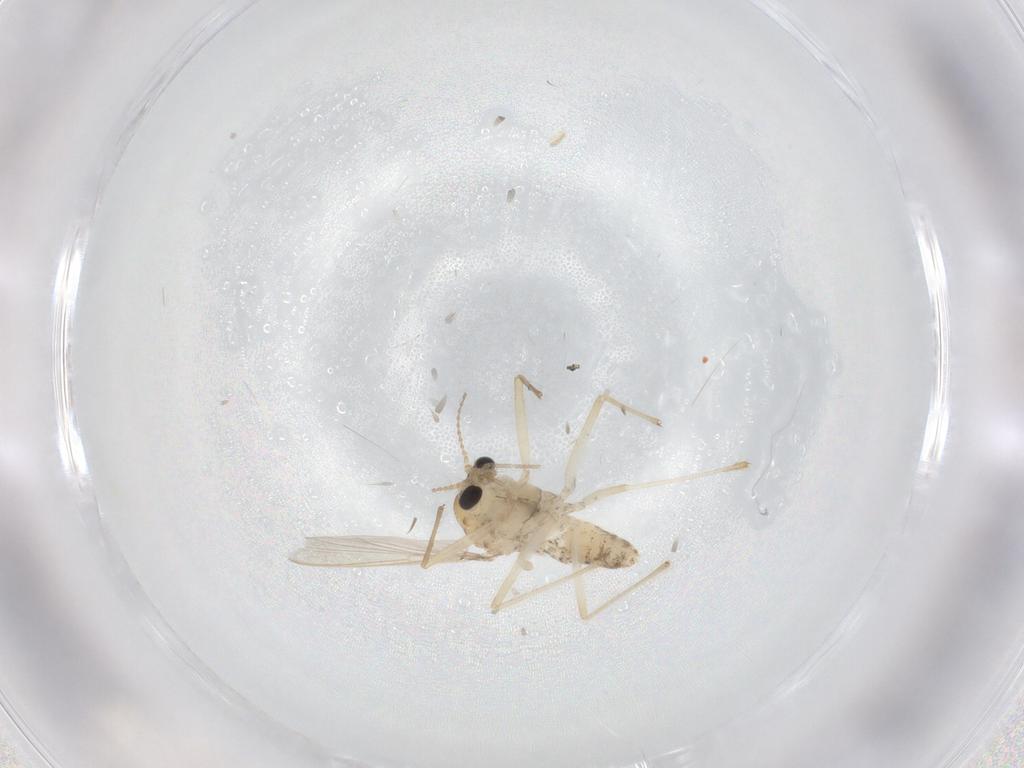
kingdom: Animalia
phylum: Arthropoda
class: Insecta
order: Diptera
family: Chironomidae
